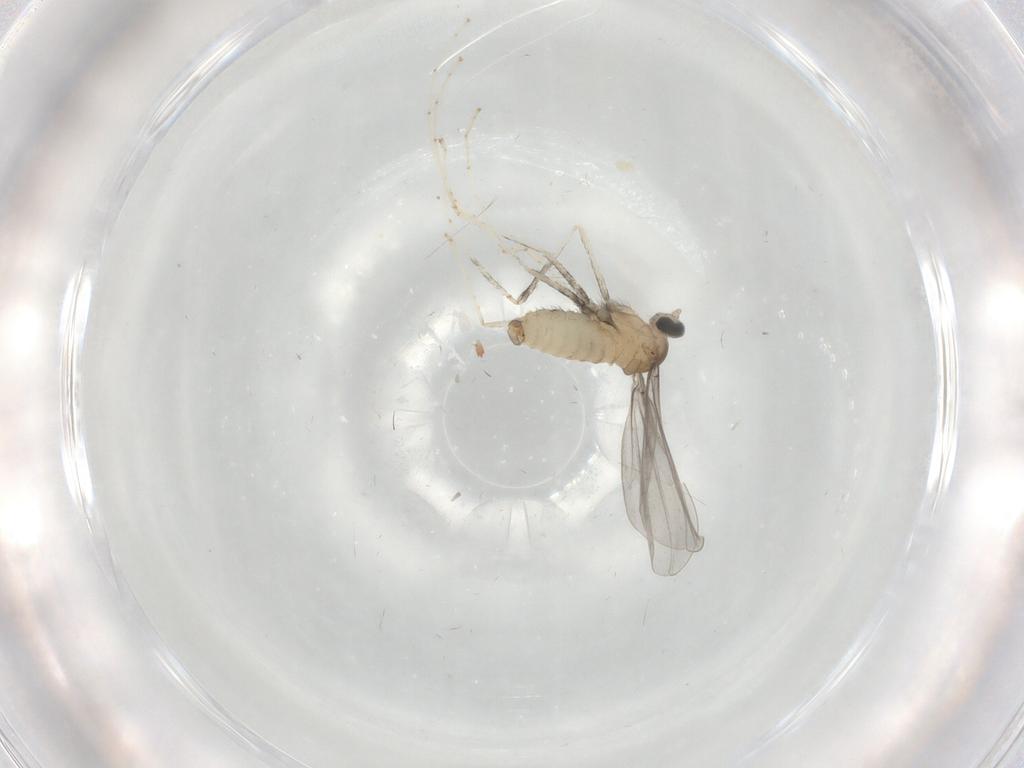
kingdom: Animalia
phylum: Arthropoda
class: Insecta
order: Diptera
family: Cecidomyiidae
